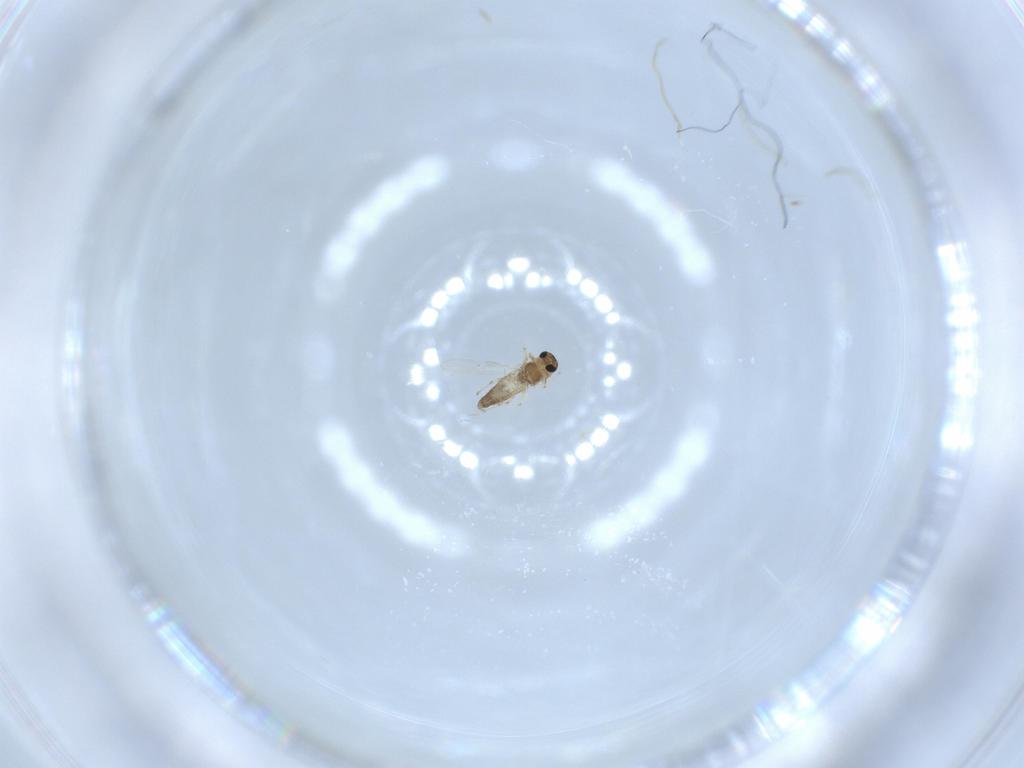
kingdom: Animalia
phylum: Arthropoda
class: Insecta
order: Diptera
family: Chironomidae
